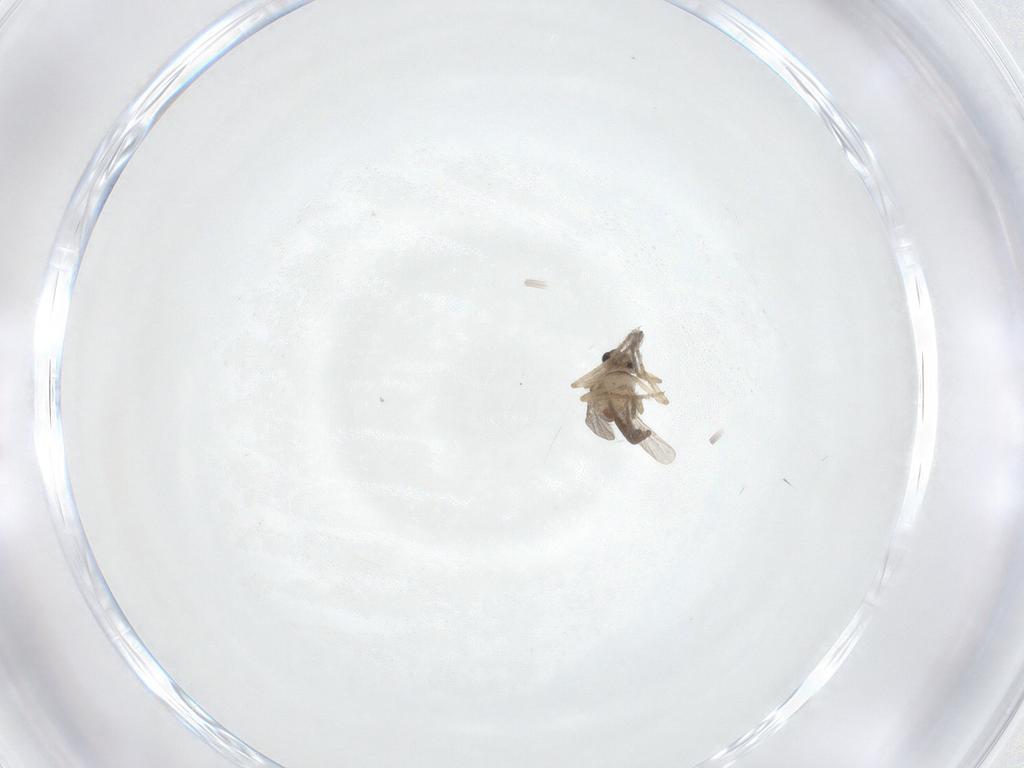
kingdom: Animalia
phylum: Arthropoda
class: Insecta
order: Diptera
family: Ceratopogonidae
